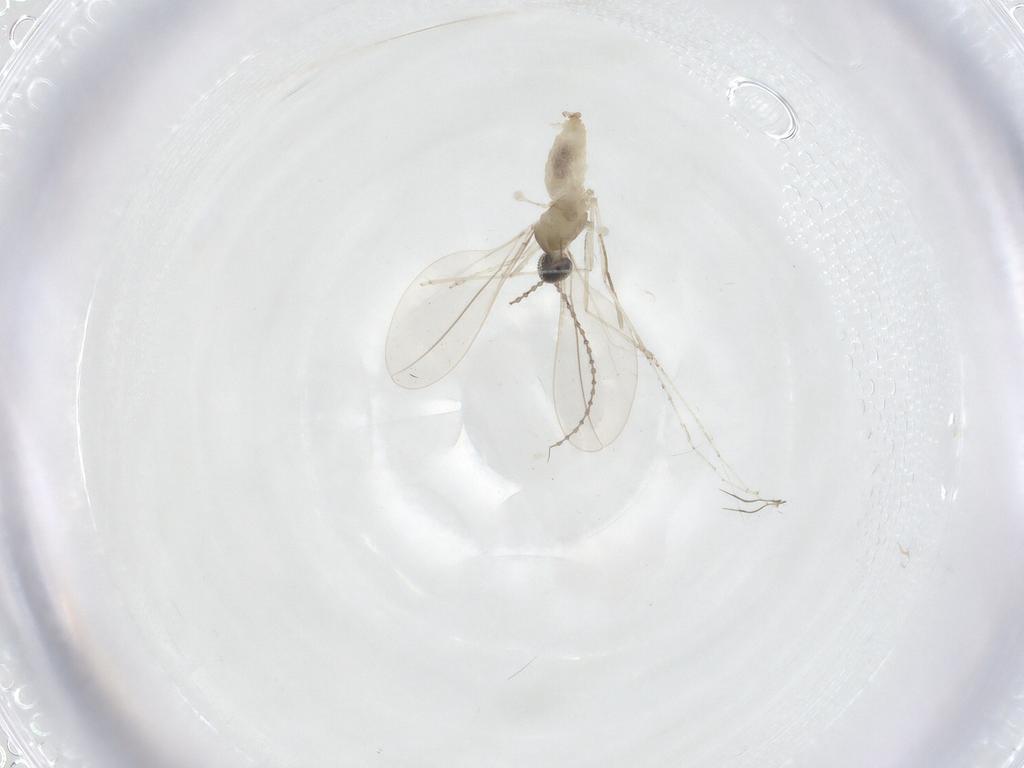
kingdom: Animalia
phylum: Arthropoda
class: Insecta
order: Diptera
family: Cecidomyiidae
